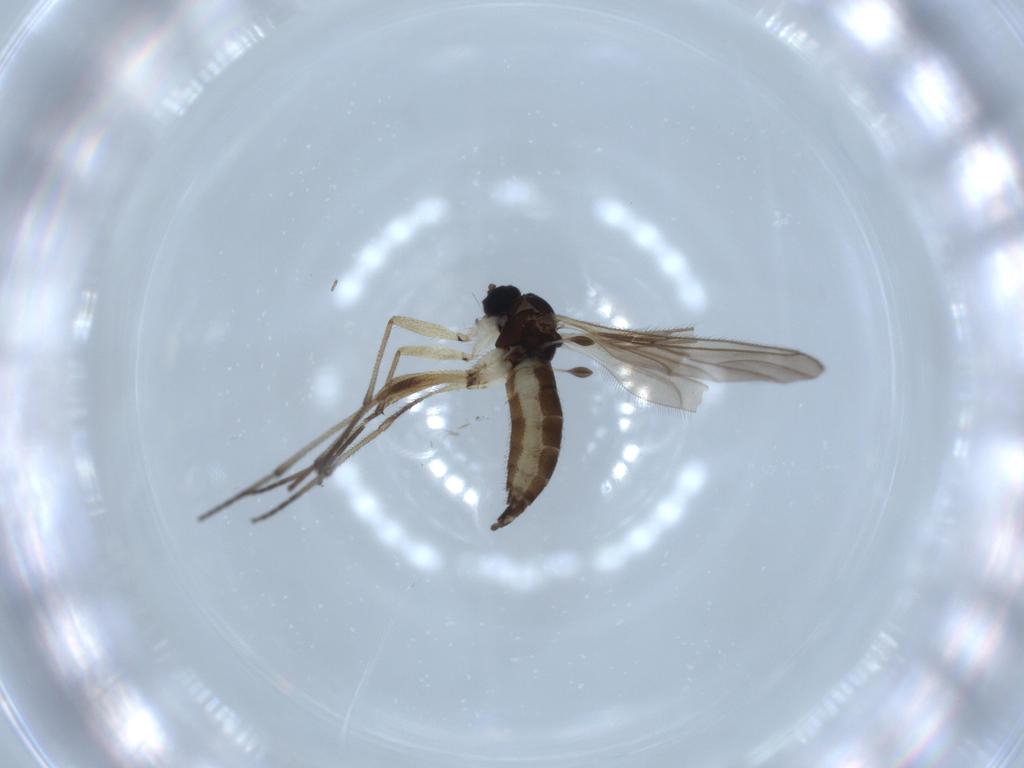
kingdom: Animalia
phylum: Arthropoda
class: Insecta
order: Diptera
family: Sciaridae
